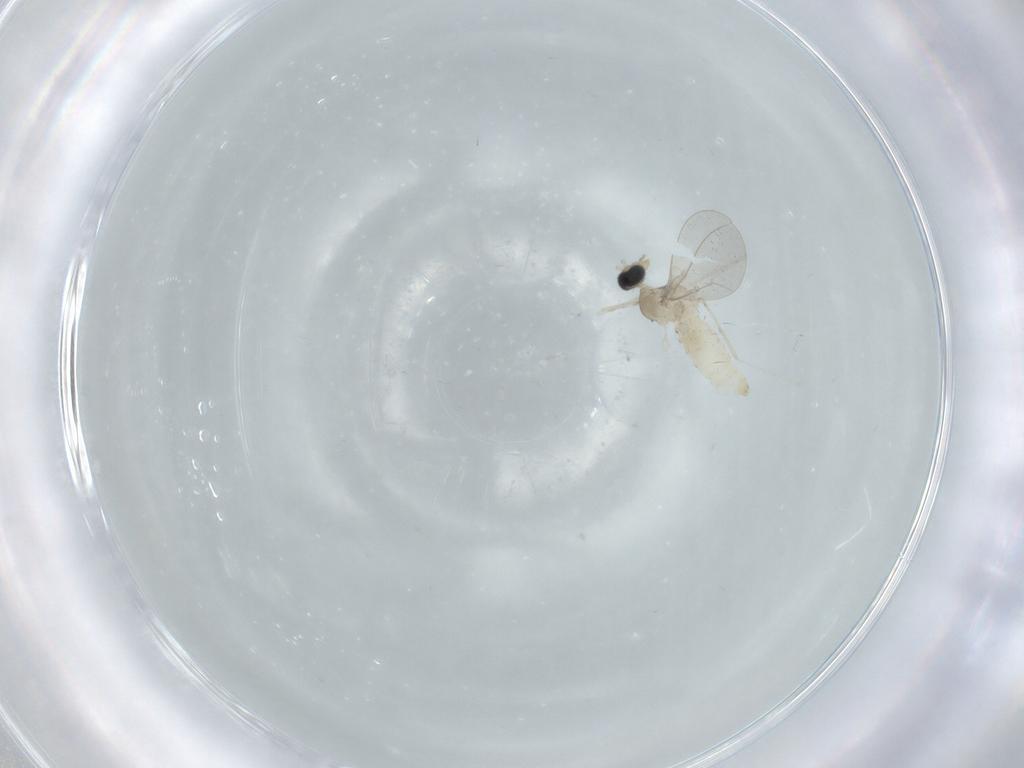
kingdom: Animalia
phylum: Arthropoda
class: Insecta
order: Diptera
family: Cecidomyiidae
